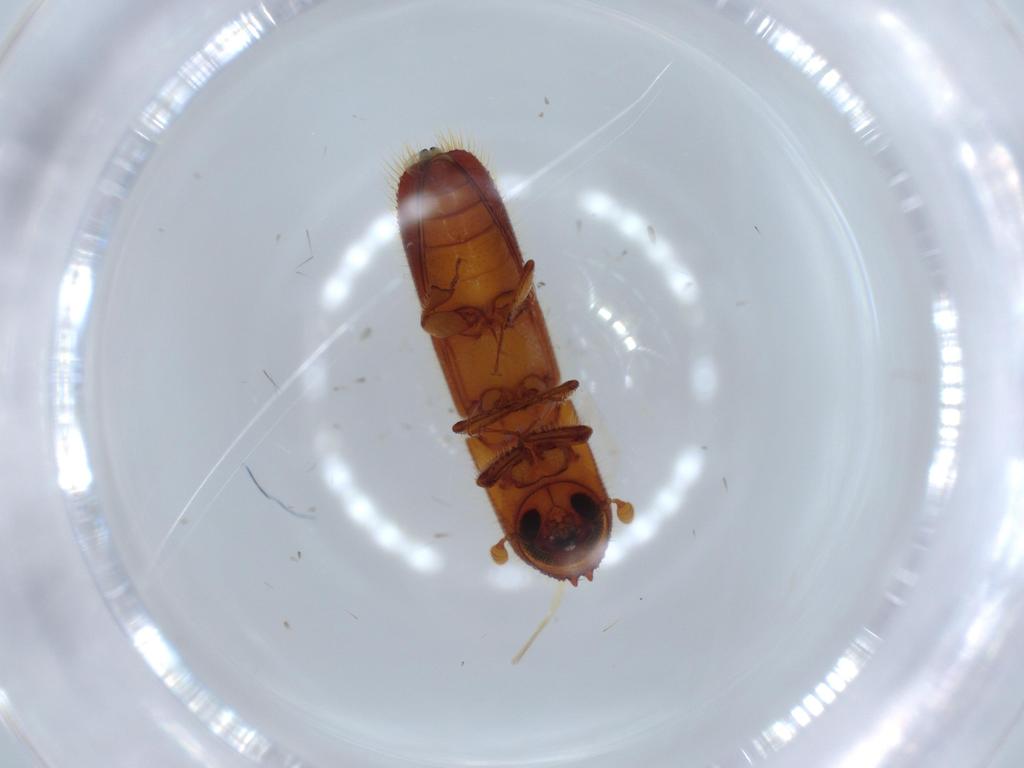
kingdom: Animalia
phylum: Arthropoda
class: Insecta
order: Coleoptera
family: Curculionidae
